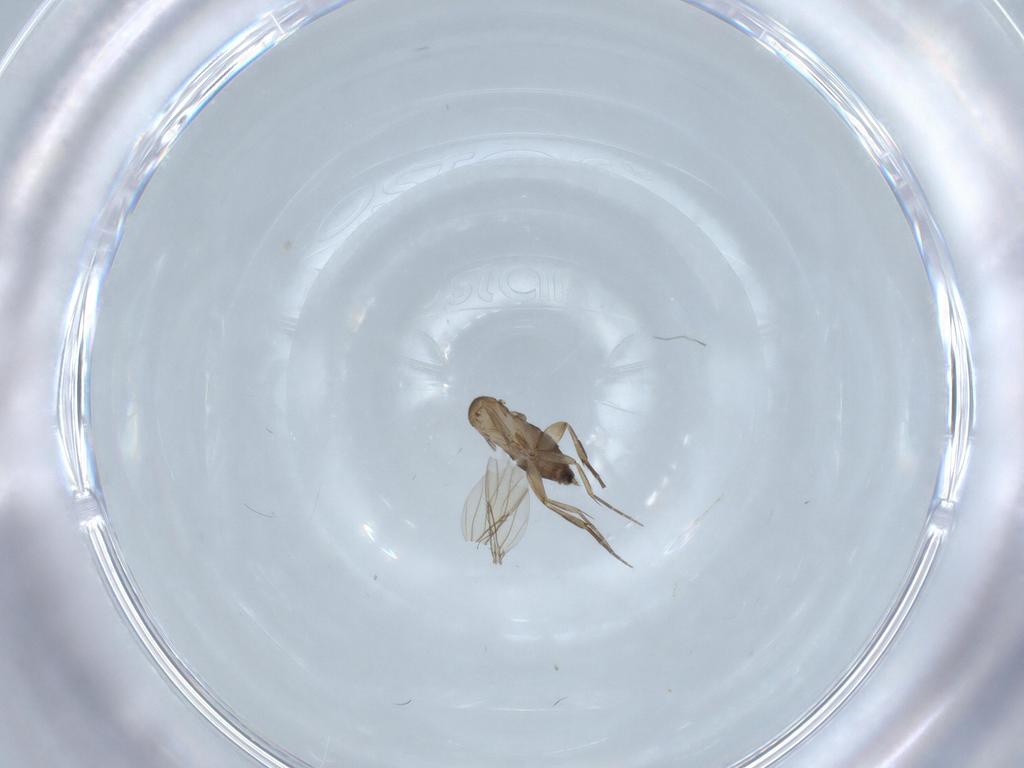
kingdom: Animalia
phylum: Arthropoda
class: Insecta
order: Diptera
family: Phoridae
